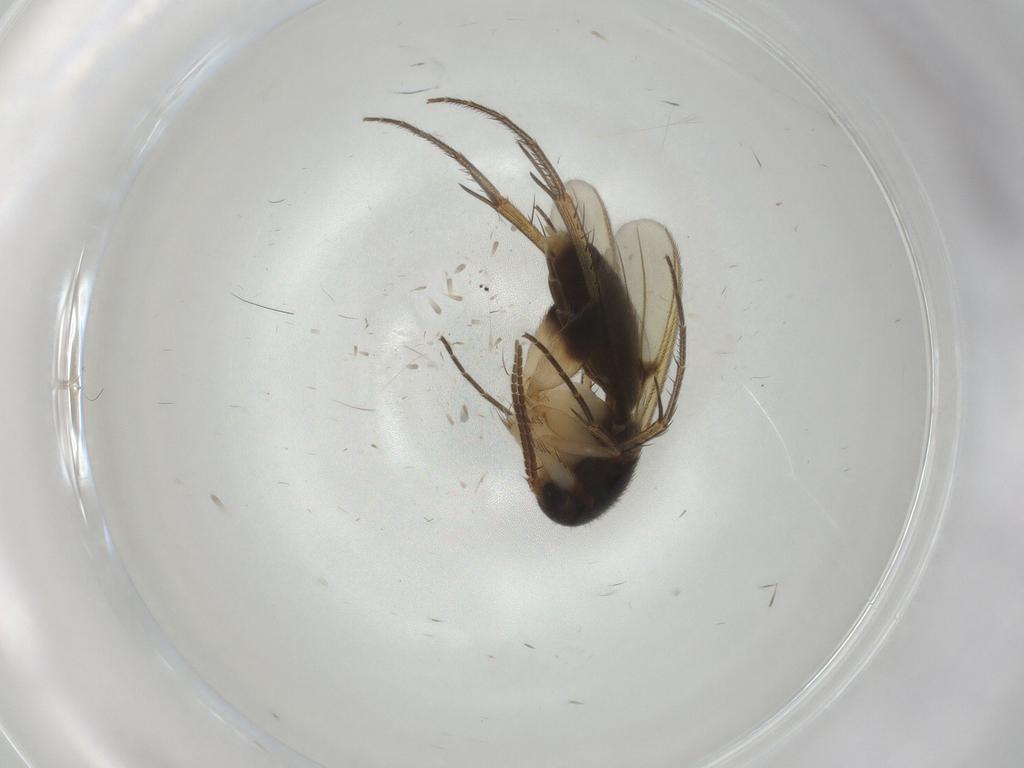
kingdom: Animalia
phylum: Arthropoda
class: Insecta
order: Diptera
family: Mycetophilidae
